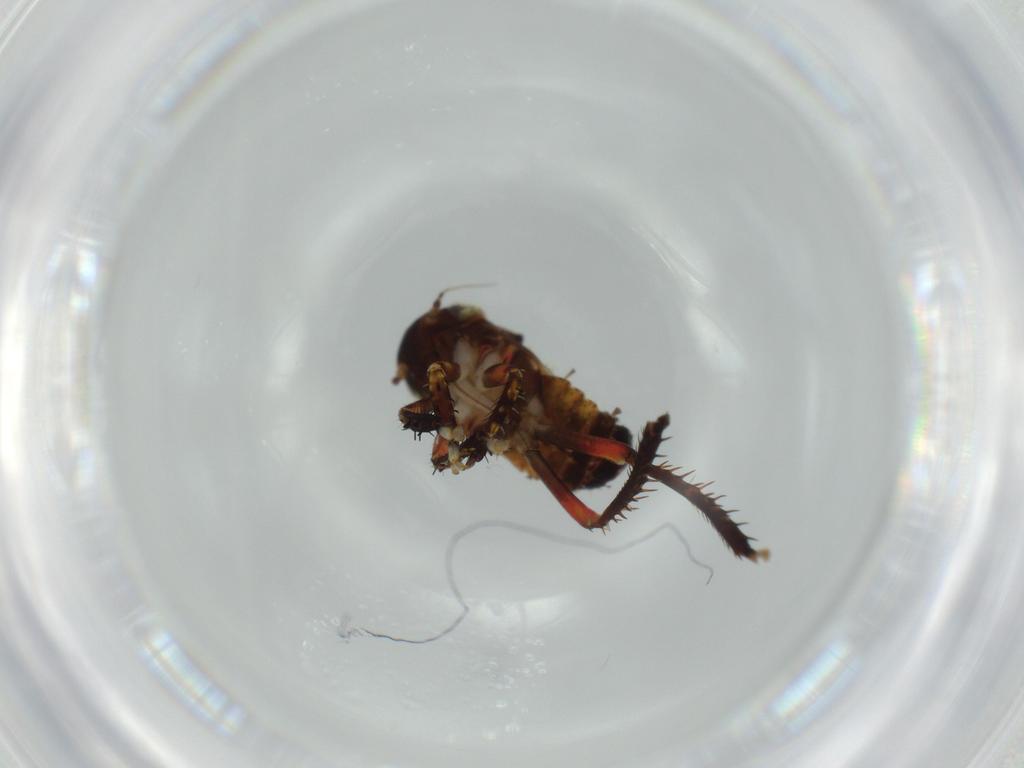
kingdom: Animalia
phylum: Arthropoda
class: Insecta
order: Hemiptera
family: Cicadellidae
